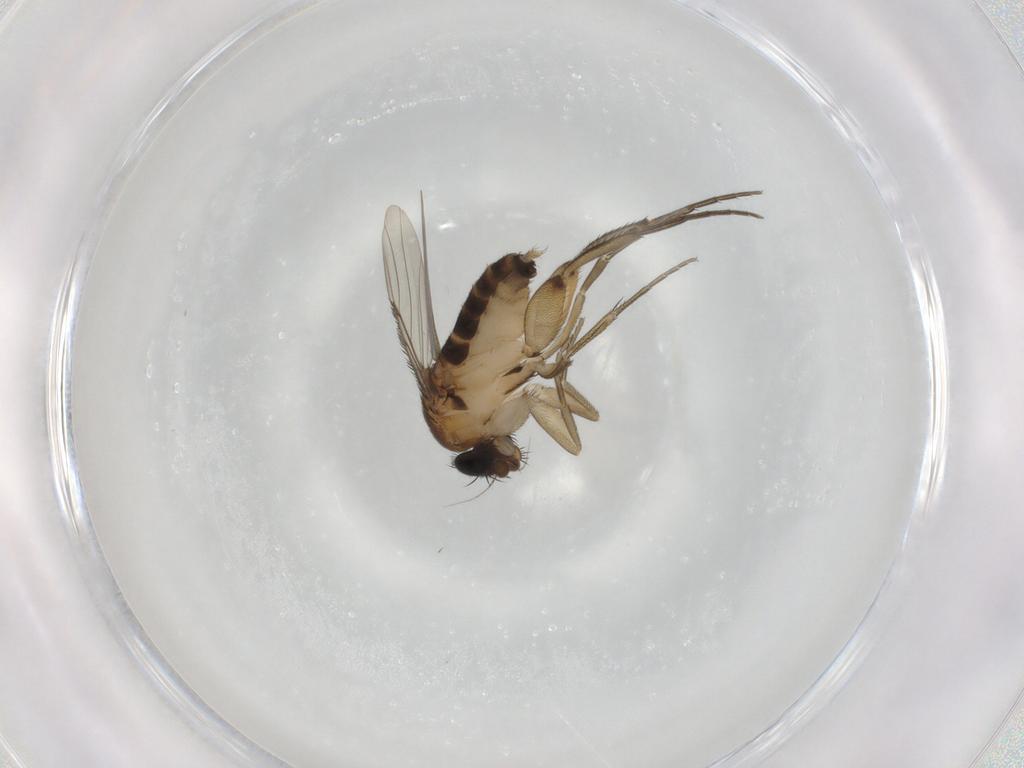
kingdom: Animalia
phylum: Arthropoda
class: Insecta
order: Diptera
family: Phoridae
